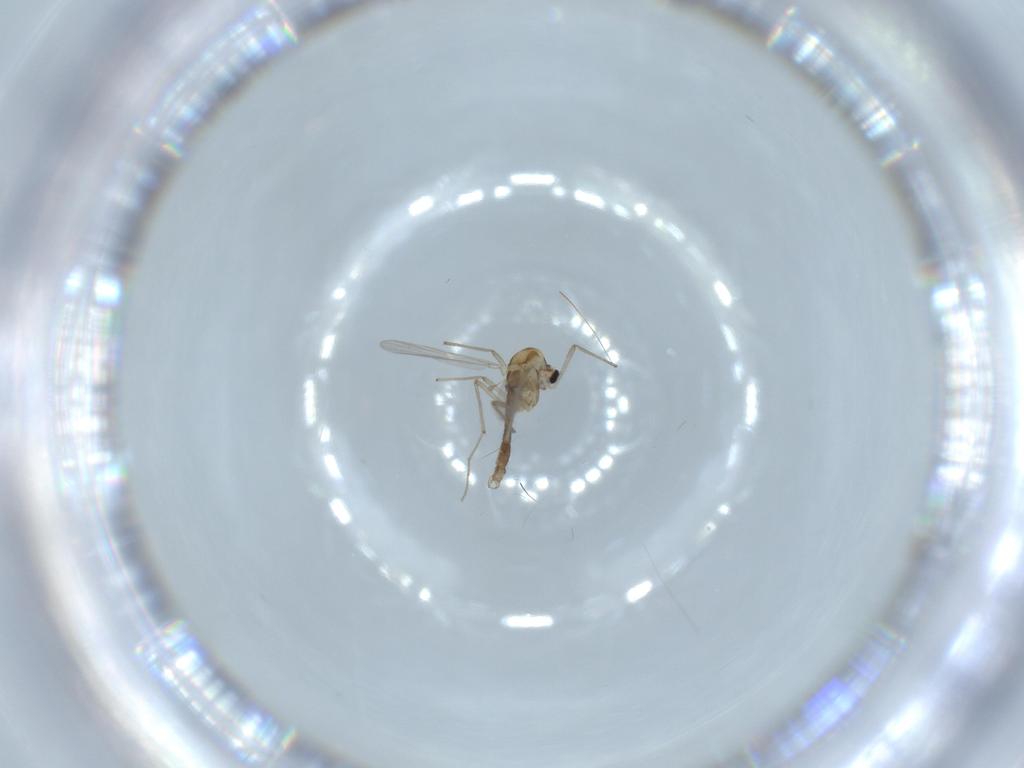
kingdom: Animalia
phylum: Arthropoda
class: Insecta
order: Diptera
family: Chironomidae
